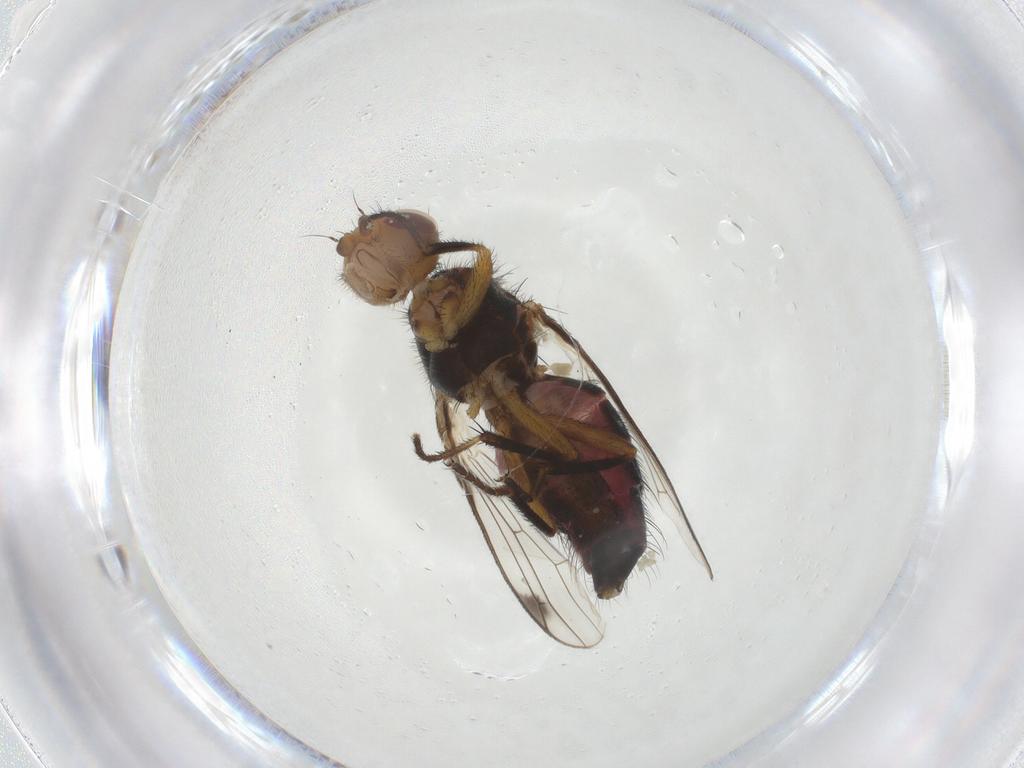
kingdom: Animalia
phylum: Arthropoda
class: Insecta
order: Diptera
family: Richardiidae
